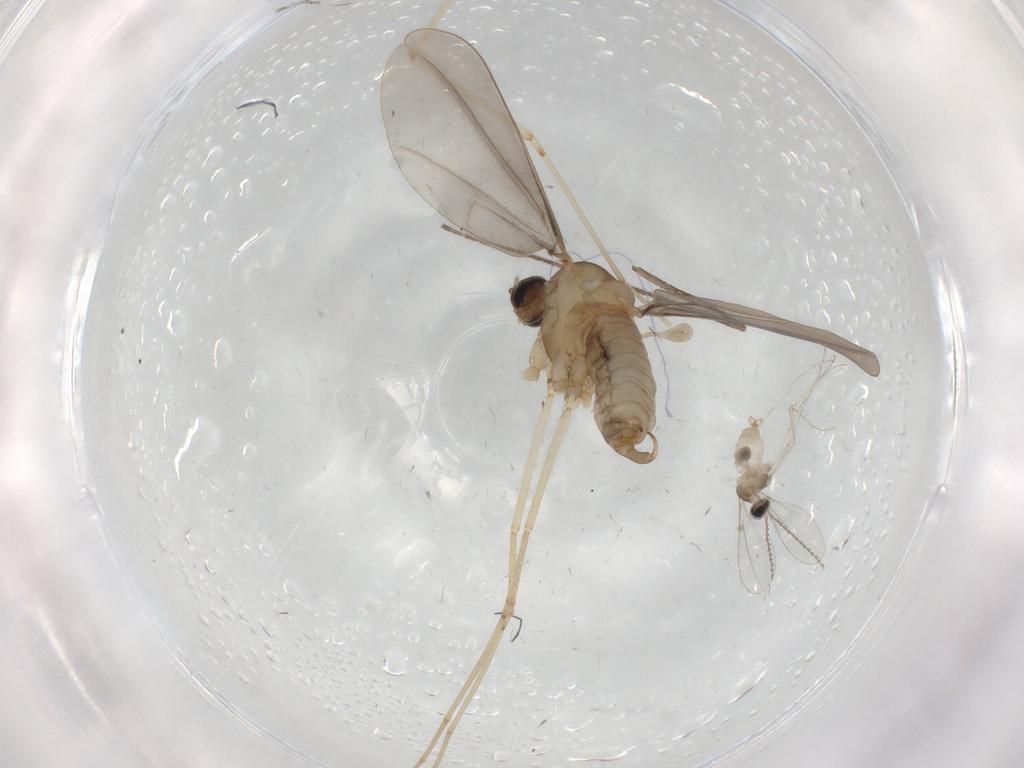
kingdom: Animalia
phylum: Arthropoda
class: Insecta
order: Diptera
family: Cecidomyiidae
